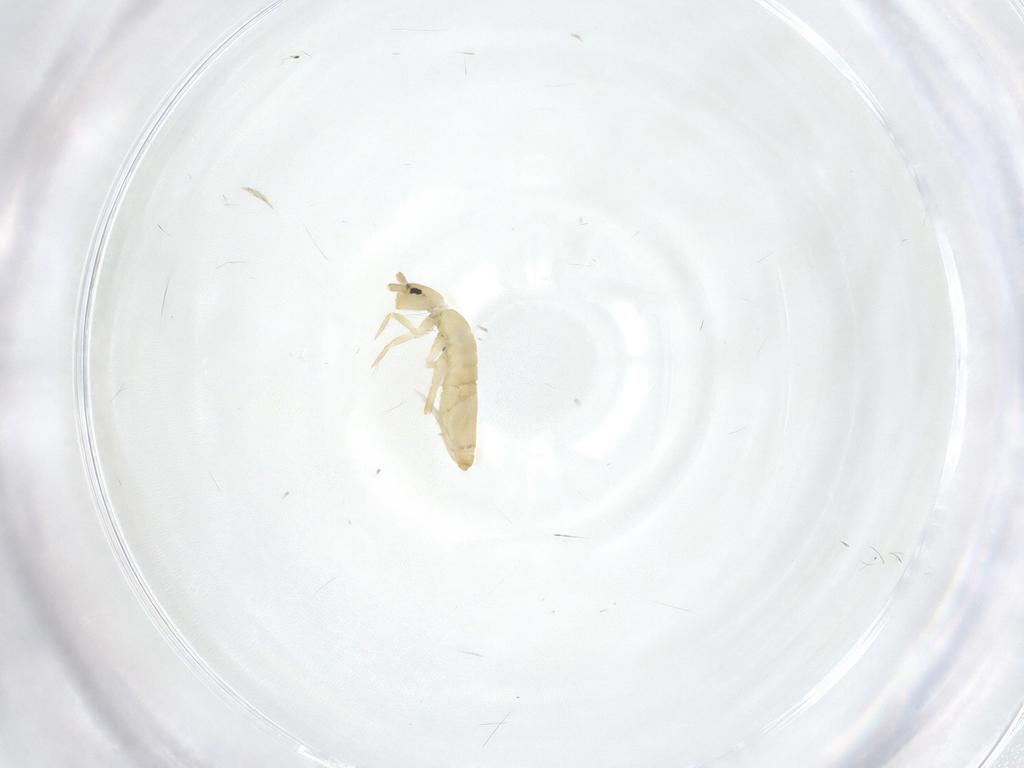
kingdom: Animalia
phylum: Arthropoda
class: Collembola
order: Entomobryomorpha
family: Entomobryidae
